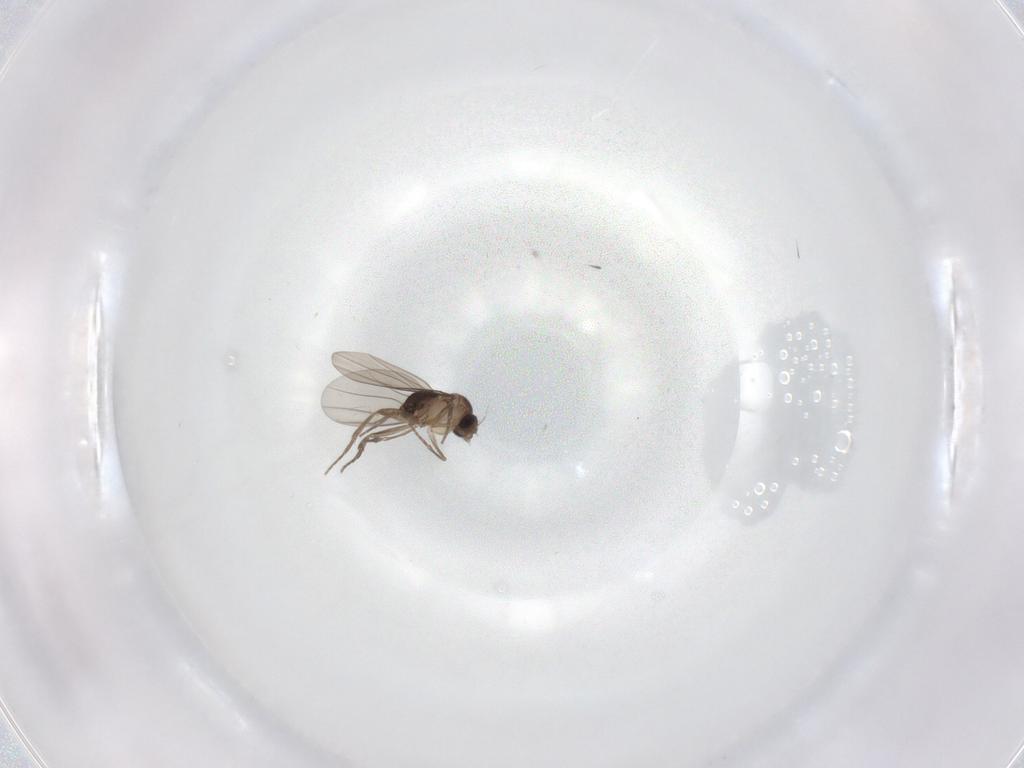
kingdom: Animalia
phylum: Arthropoda
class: Insecta
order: Diptera
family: Phoridae
